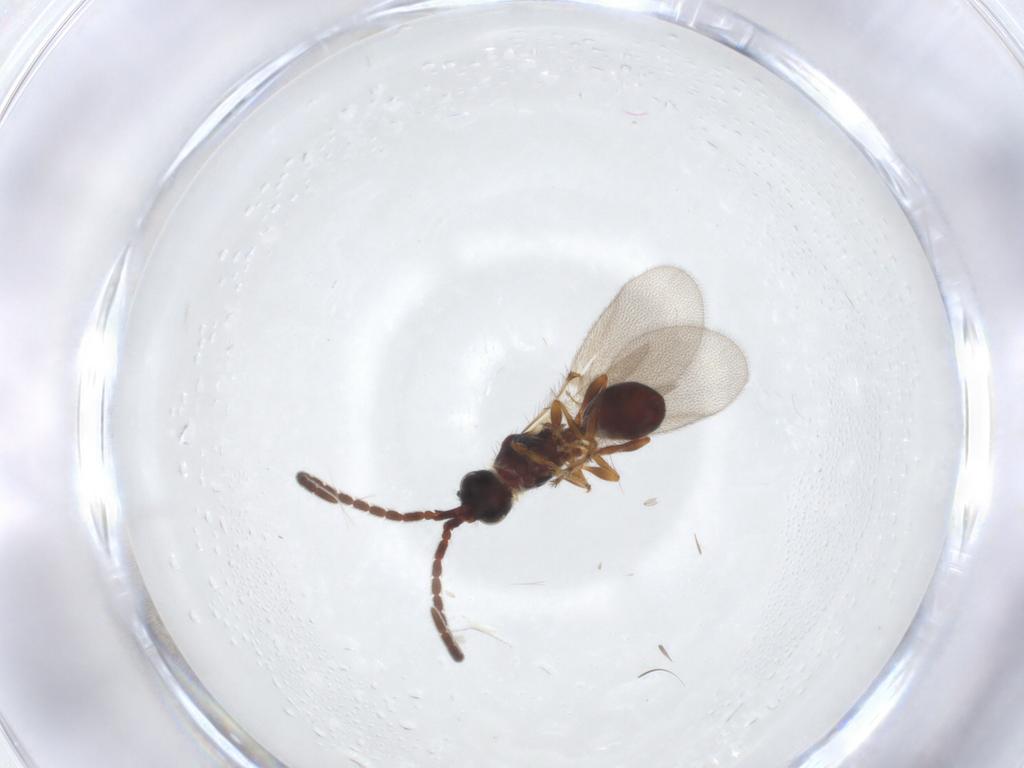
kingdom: Animalia
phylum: Arthropoda
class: Insecta
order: Hymenoptera
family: Diapriidae
